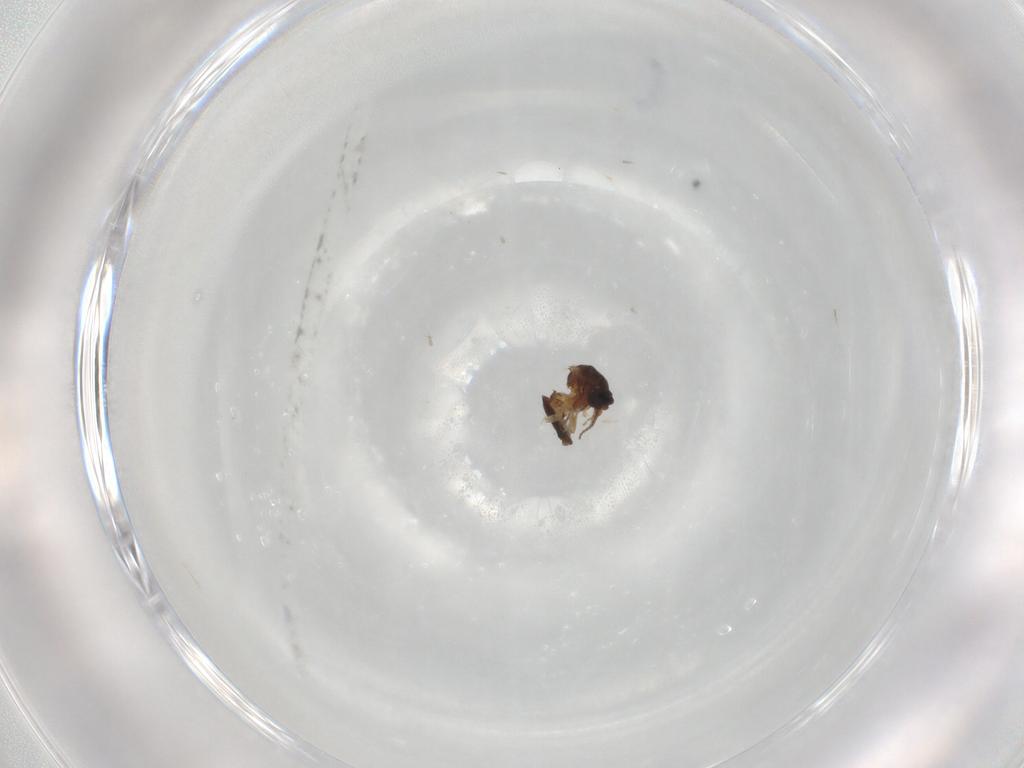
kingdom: Animalia
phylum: Arthropoda
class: Insecta
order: Diptera
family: Ceratopogonidae
